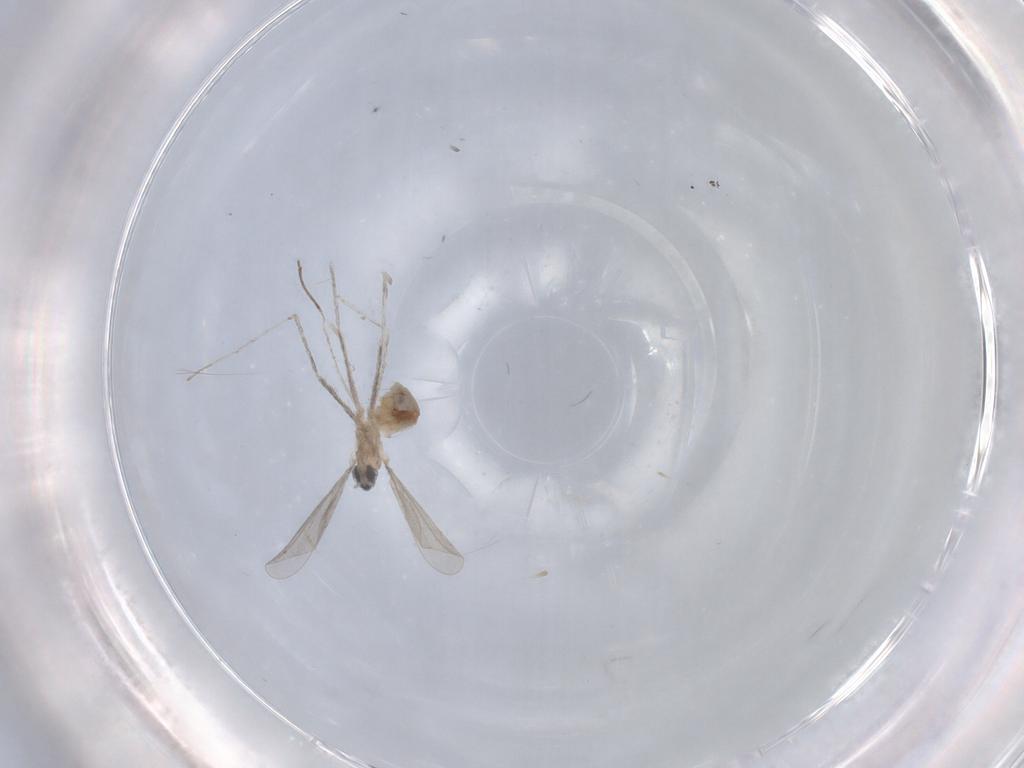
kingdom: Animalia
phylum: Arthropoda
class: Insecta
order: Diptera
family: Cecidomyiidae
